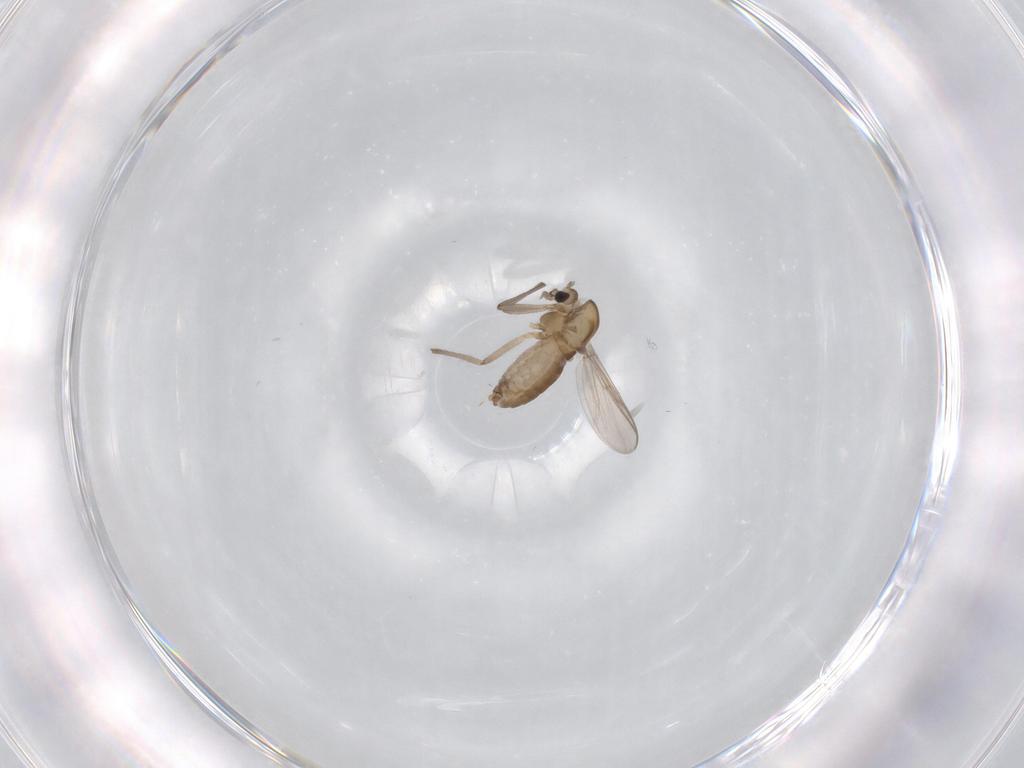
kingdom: Animalia
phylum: Arthropoda
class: Insecta
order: Diptera
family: Chironomidae
